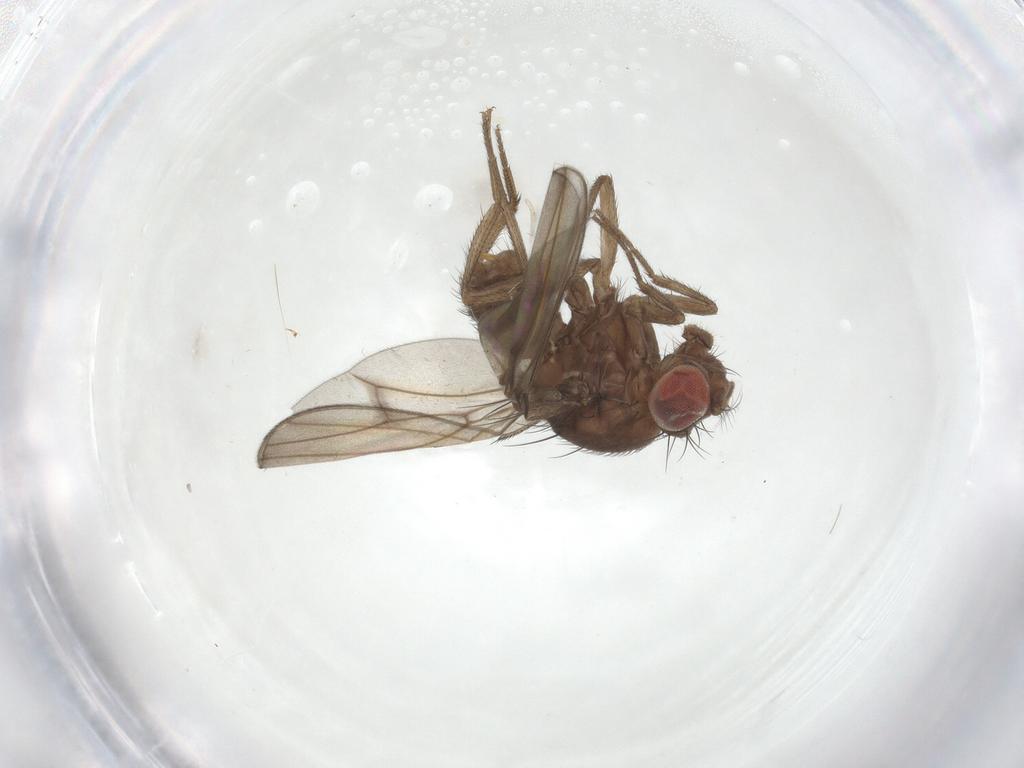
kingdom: Animalia
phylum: Arthropoda
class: Insecta
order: Diptera
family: Drosophilidae
